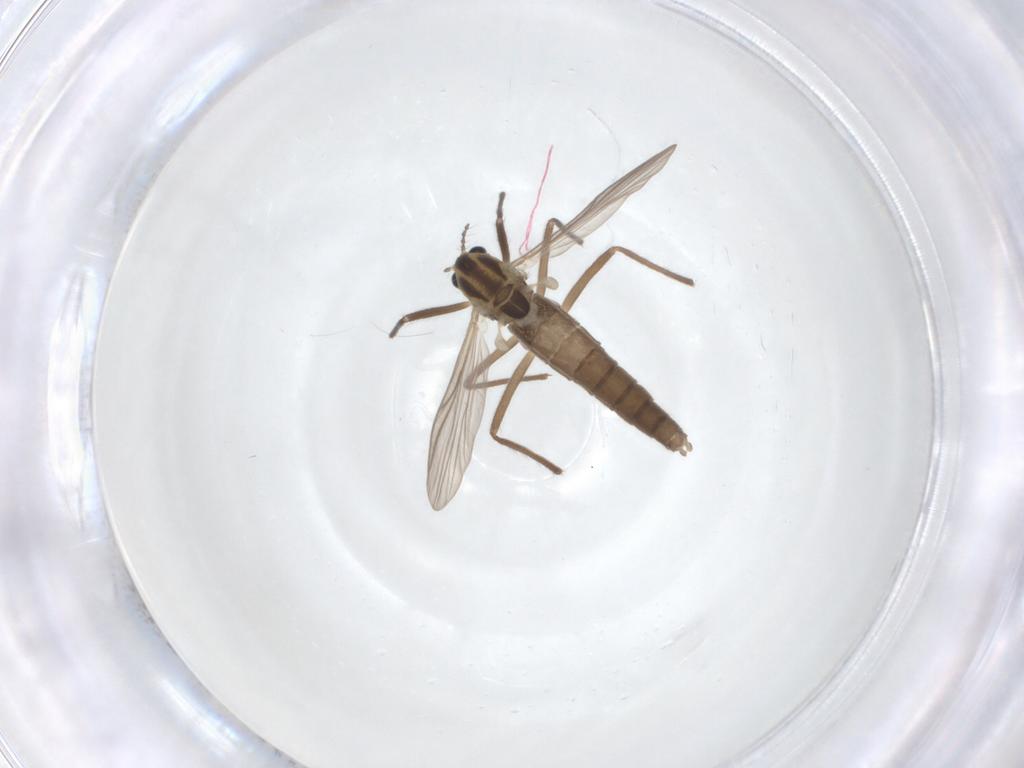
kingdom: Animalia
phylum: Arthropoda
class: Insecta
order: Diptera
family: Chironomidae
